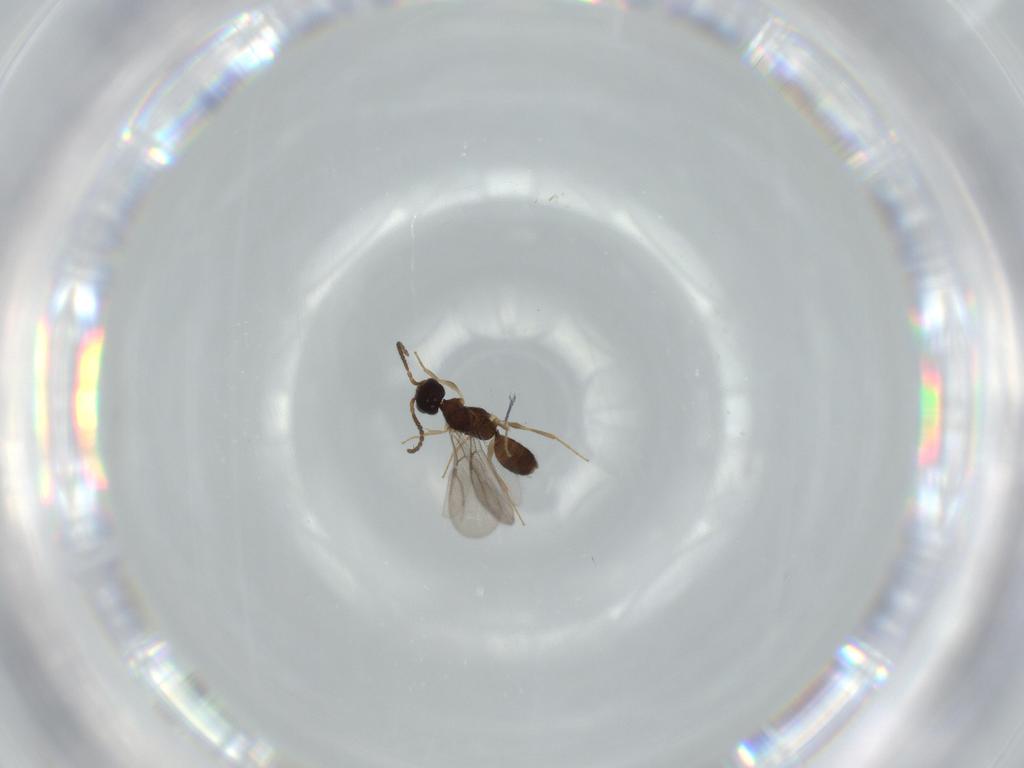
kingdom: Animalia
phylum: Arthropoda
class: Insecta
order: Hymenoptera
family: Bethylidae
